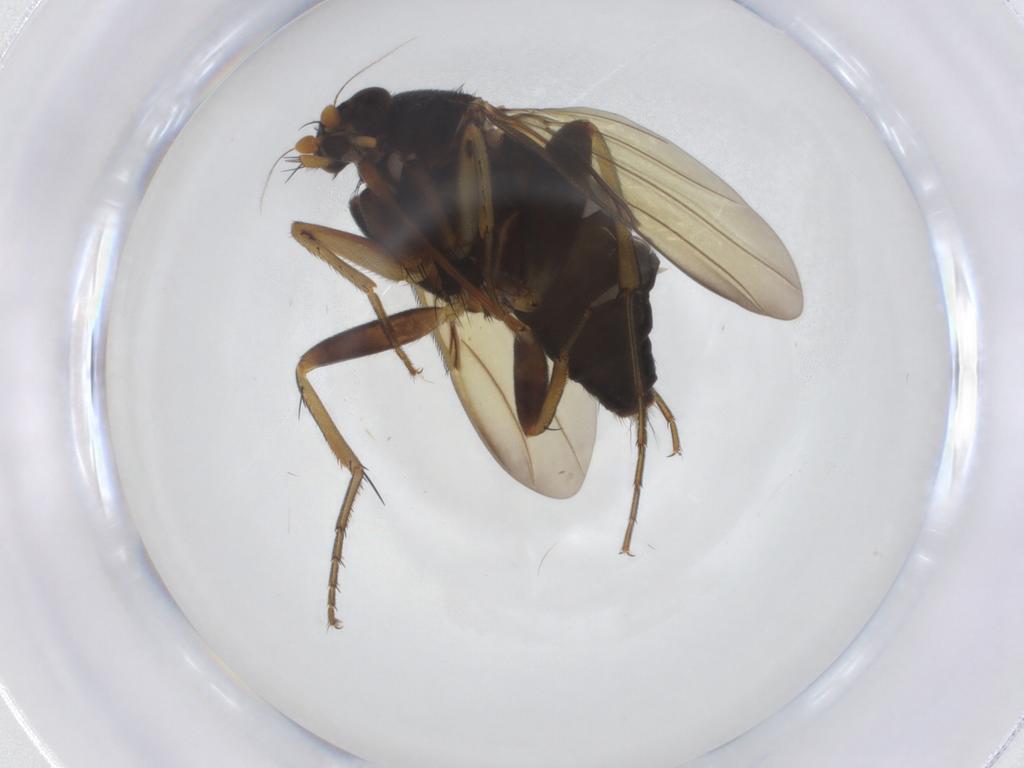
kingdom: Animalia
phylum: Arthropoda
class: Insecta
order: Diptera
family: Phoridae
